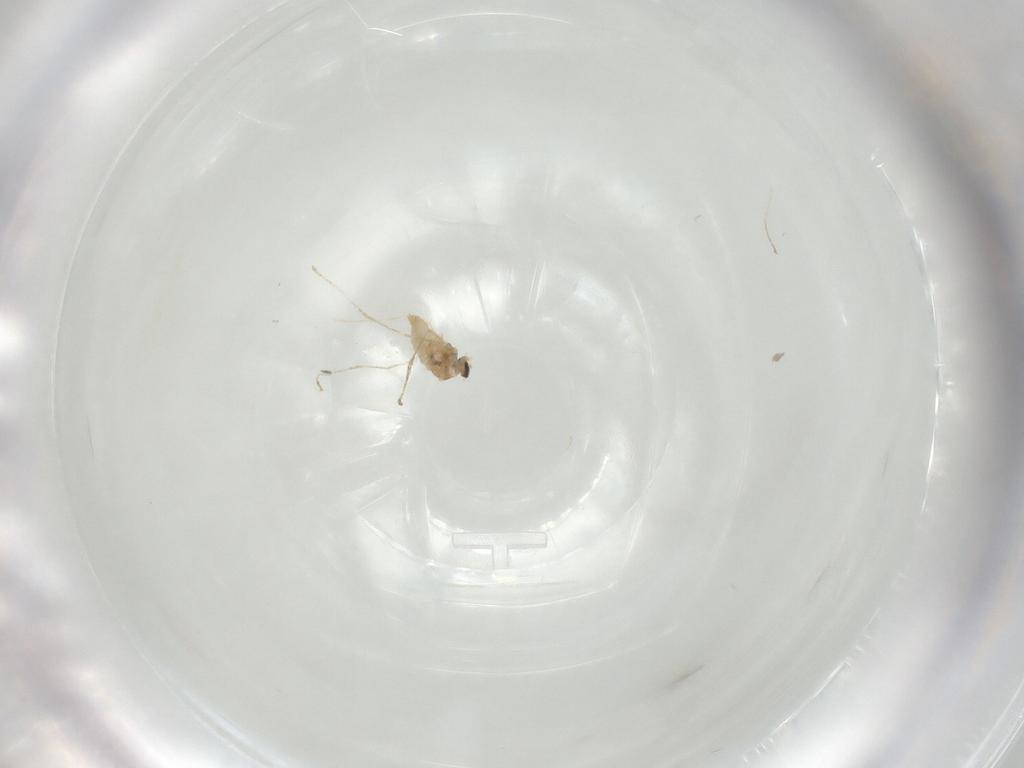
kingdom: Animalia
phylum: Arthropoda
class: Insecta
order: Diptera
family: Cecidomyiidae
